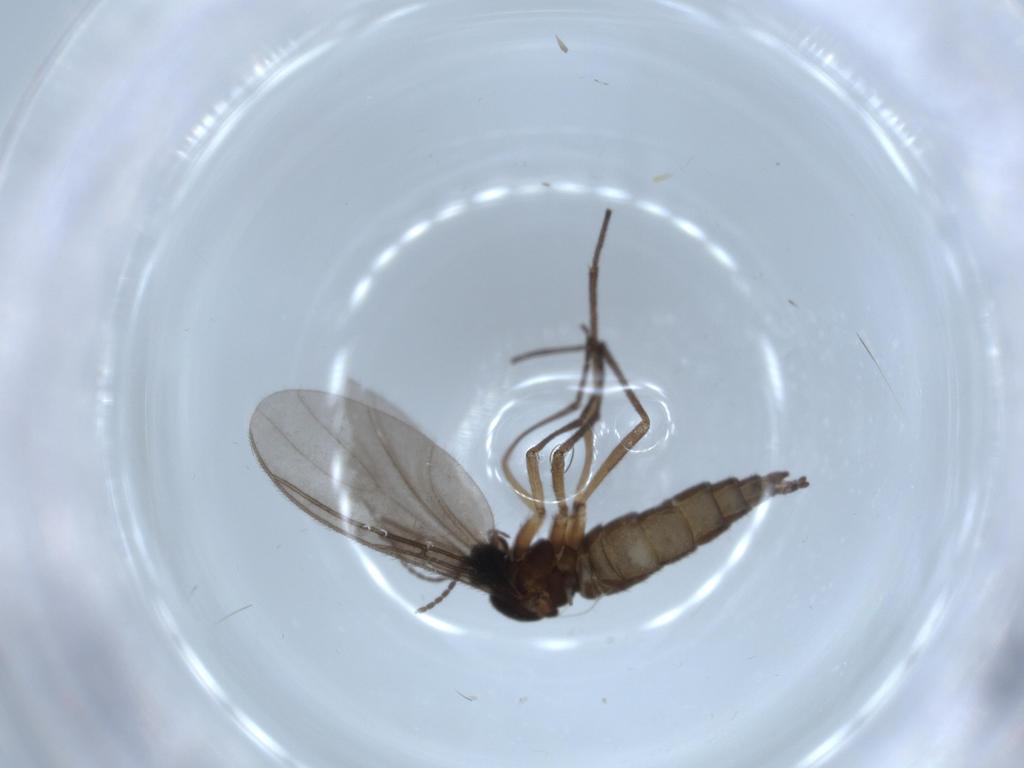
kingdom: Animalia
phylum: Arthropoda
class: Insecta
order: Diptera
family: Sciaridae
